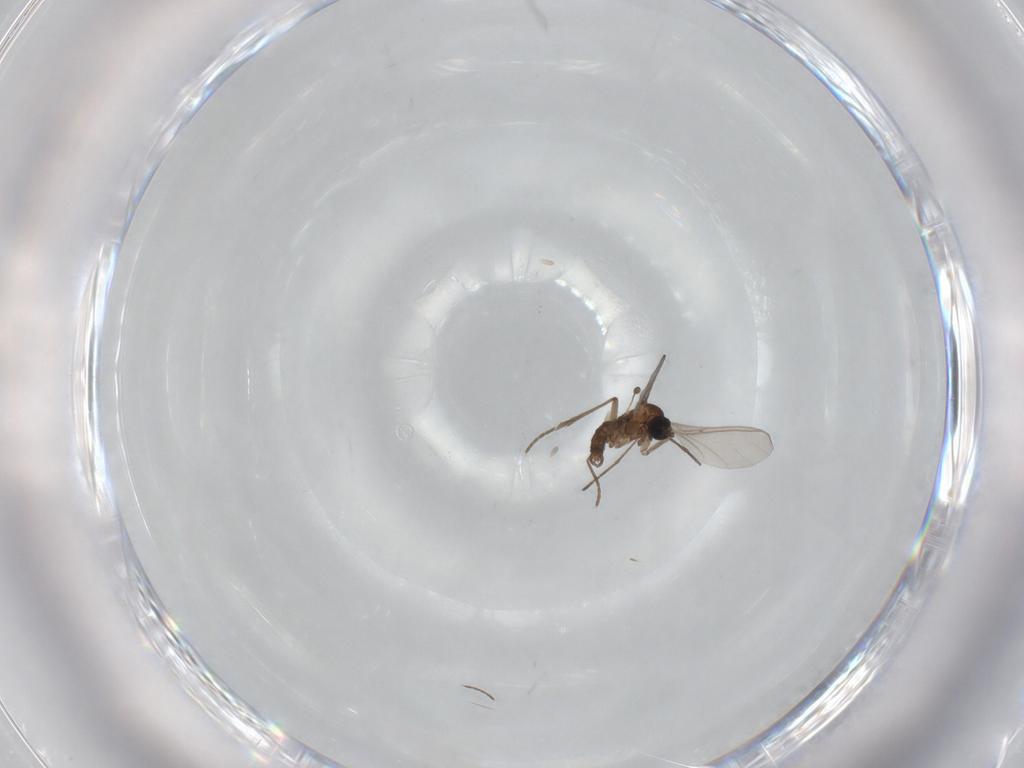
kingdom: Animalia
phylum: Arthropoda
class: Insecta
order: Diptera
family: Sciaridae
